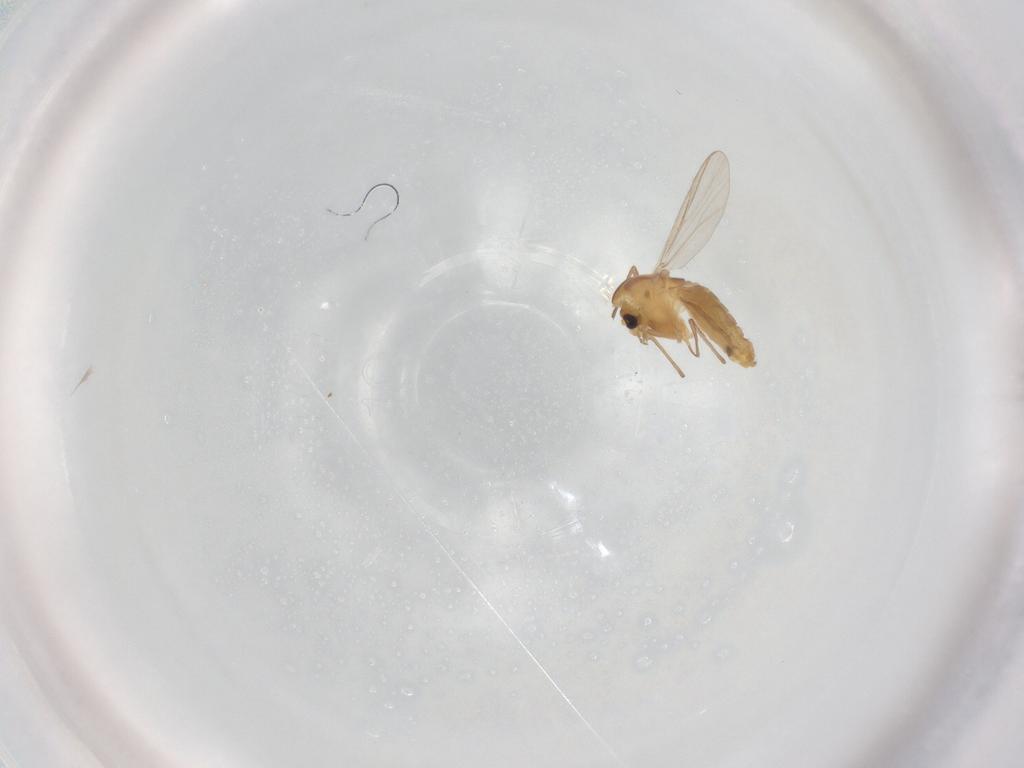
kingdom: Animalia
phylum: Arthropoda
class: Insecta
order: Diptera
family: Chironomidae
